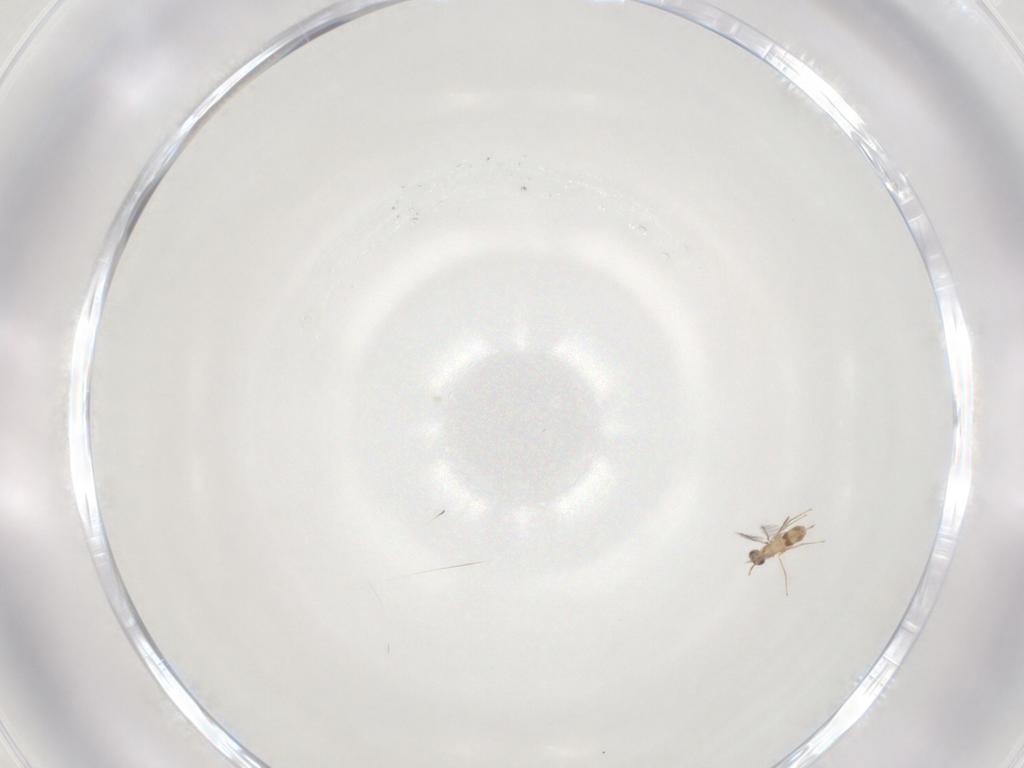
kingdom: Animalia
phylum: Arthropoda
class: Insecta
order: Hymenoptera
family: Mymaridae
